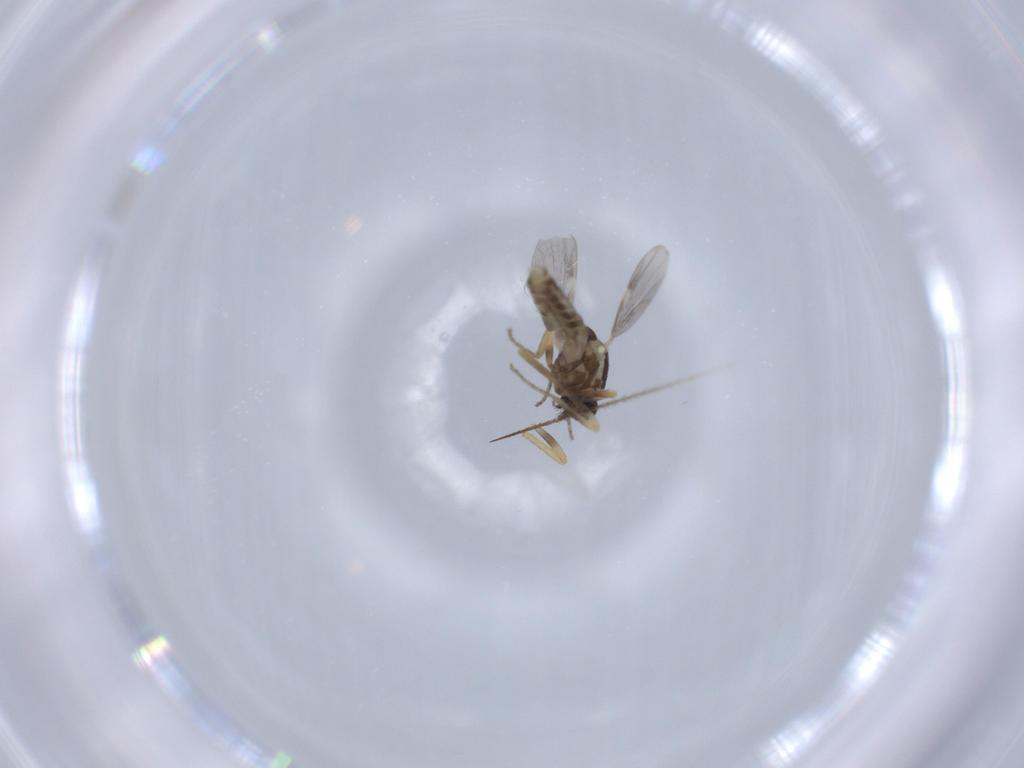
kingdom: Animalia
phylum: Arthropoda
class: Insecta
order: Diptera
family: Ceratopogonidae
